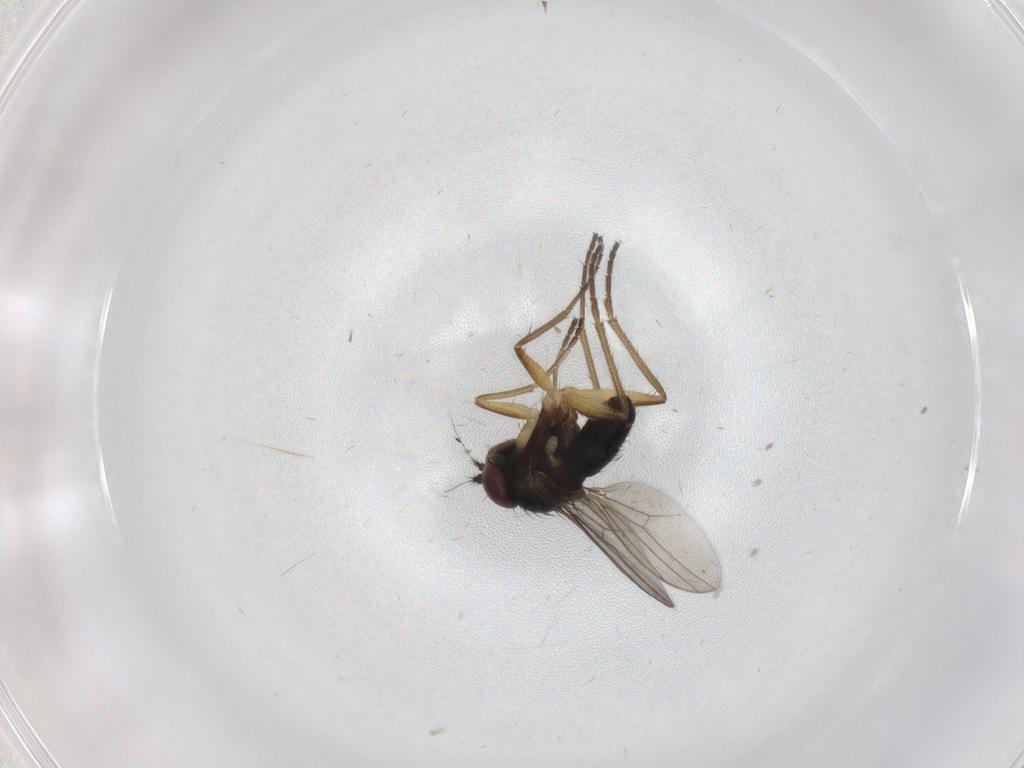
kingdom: Animalia
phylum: Arthropoda
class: Insecta
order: Diptera
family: Dolichopodidae
